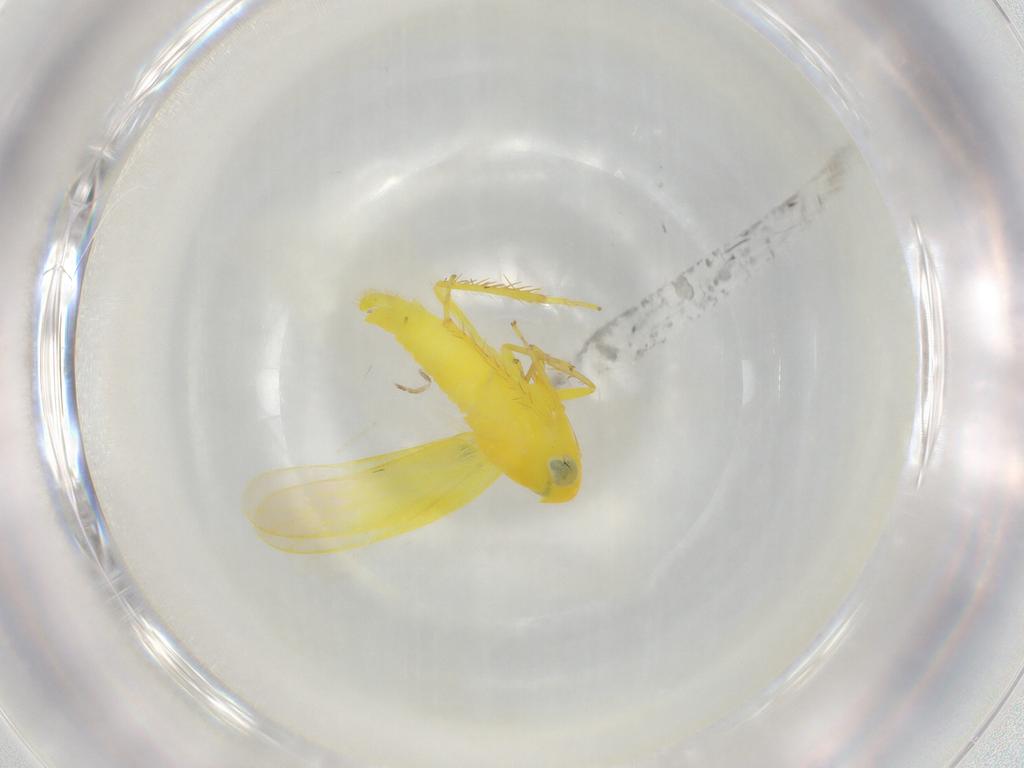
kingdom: Animalia
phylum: Arthropoda
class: Insecta
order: Hemiptera
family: Cicadellidae
